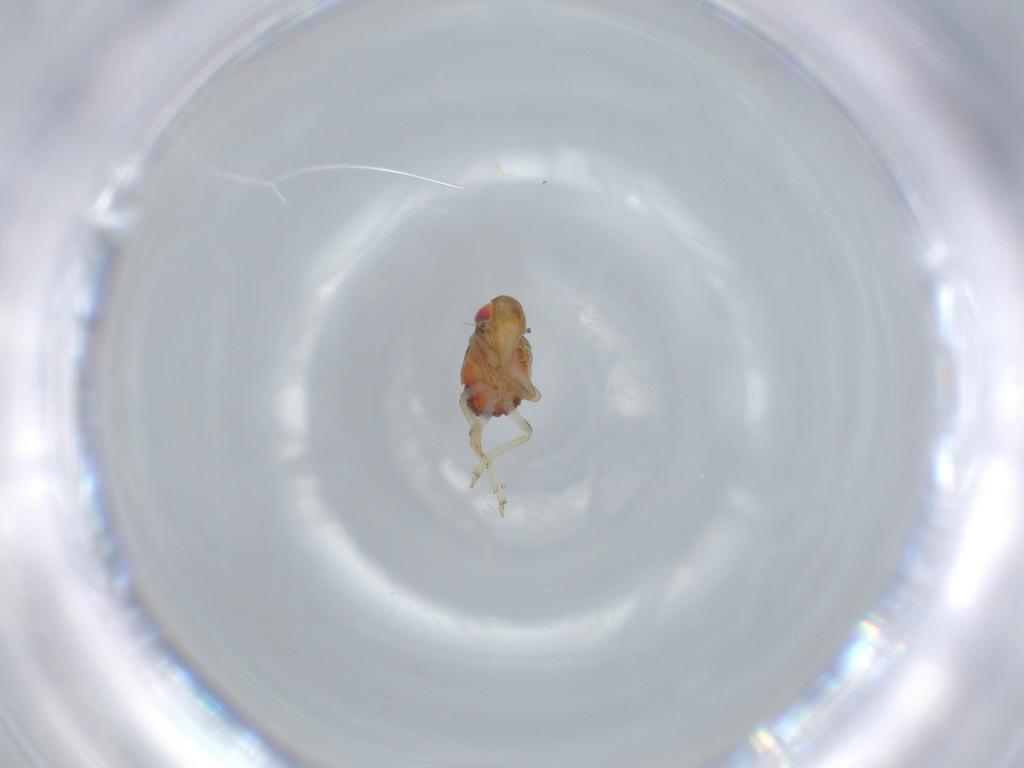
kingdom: Animalia
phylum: Arthropoda
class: Insecta
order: Hemiptera
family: Issidae
